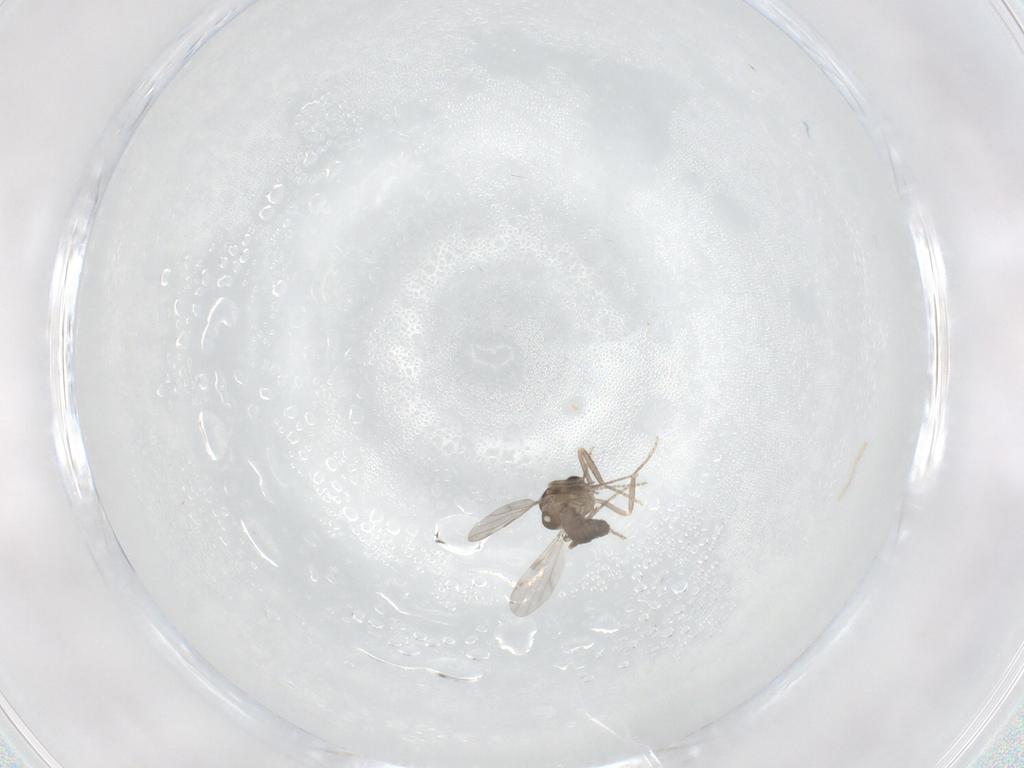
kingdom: Animalia
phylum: Arthropoda
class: Insecta
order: Diptera
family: Ceratopogonidae
